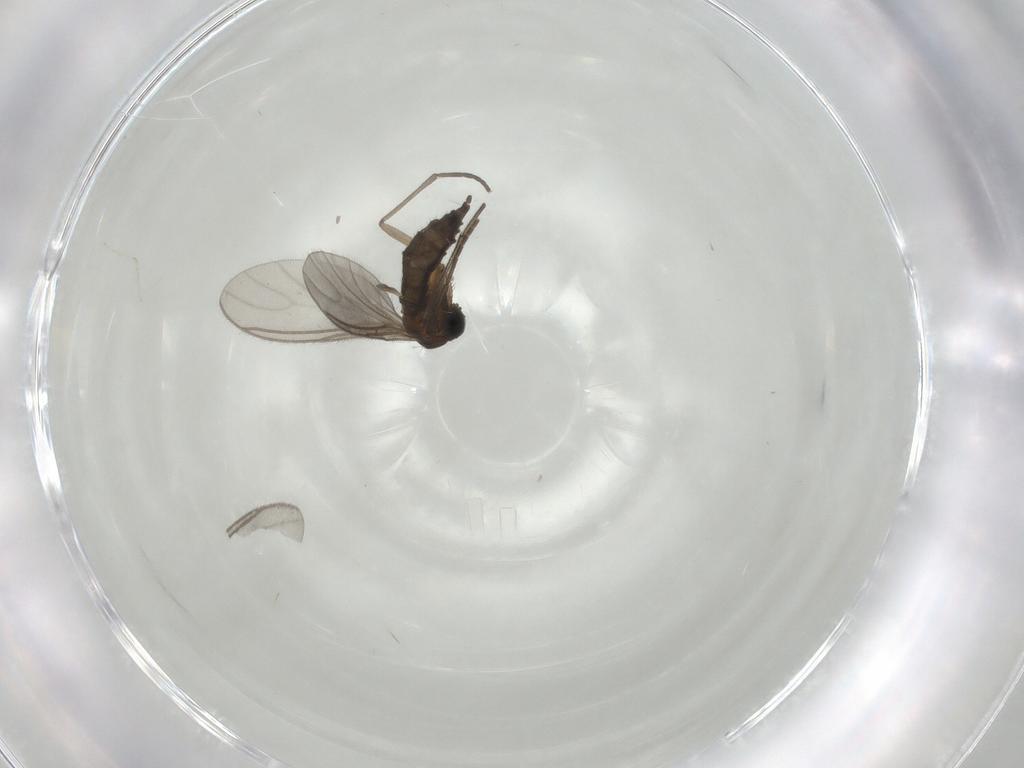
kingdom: Animalia
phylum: Arthropoda
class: Insecta
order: Diptera
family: Cecidomyiidae
